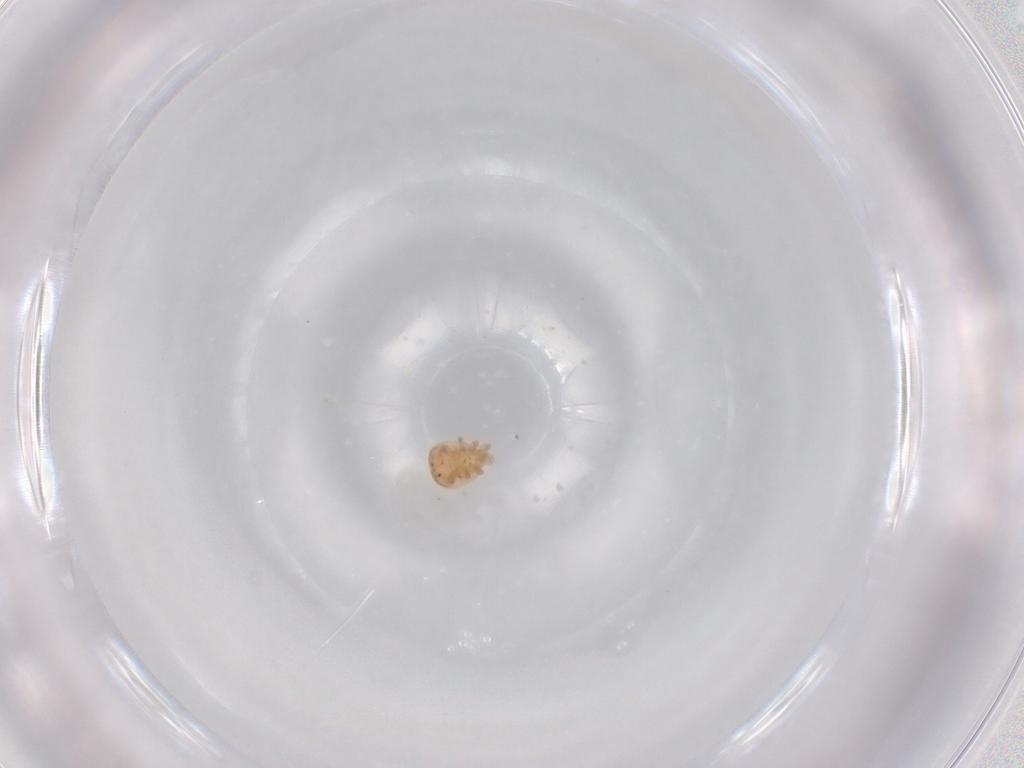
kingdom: Animalia
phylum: Arthropoda
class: Arachnida
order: Mesostigmata
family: Zerconidae
